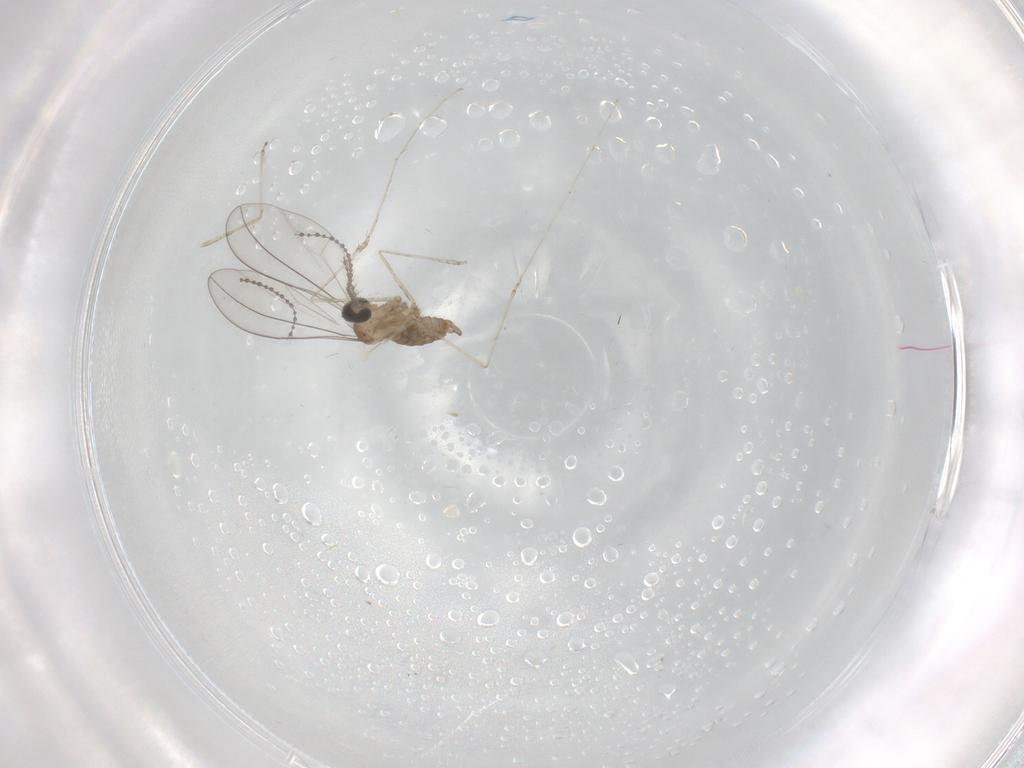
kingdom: Animalia
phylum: Arthropoda
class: Insecta
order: Diptera
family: Cecidomyiidae
